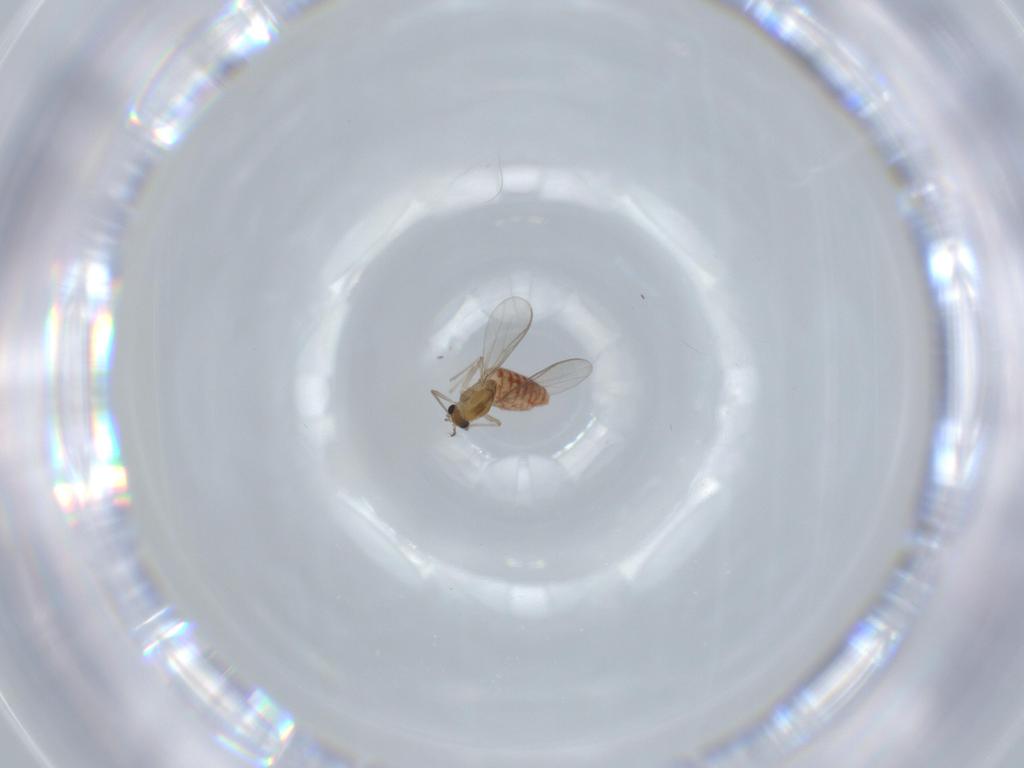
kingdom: Animalia
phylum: Arthropoda
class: Insecta
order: Diptera
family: Chironomidae
